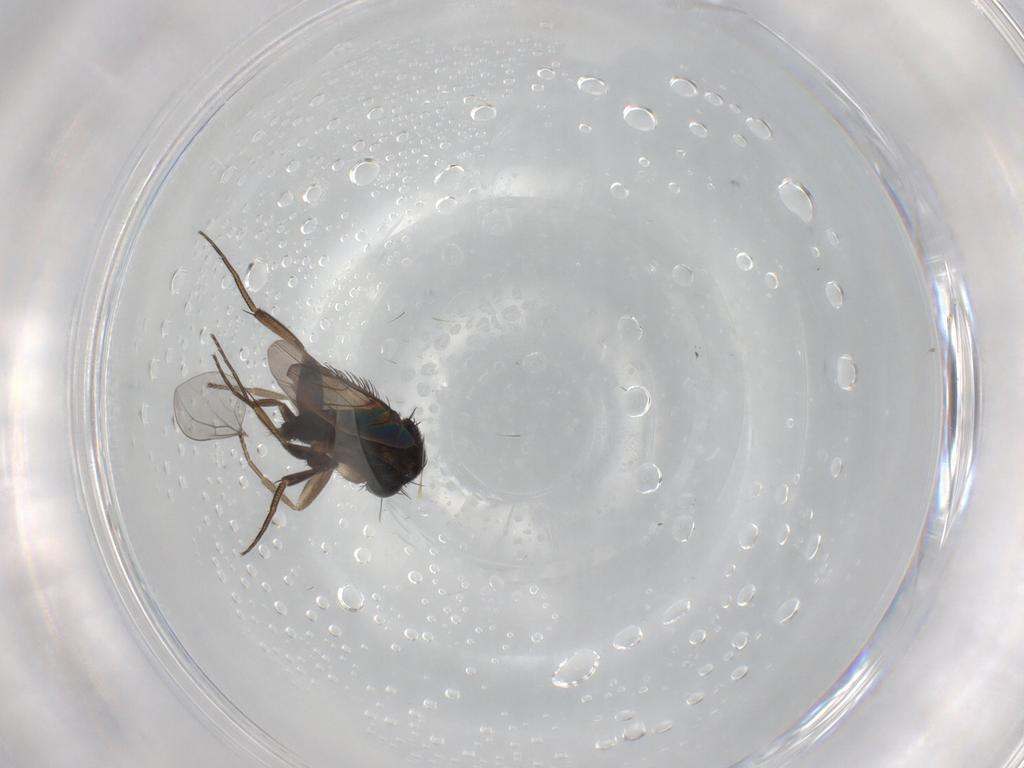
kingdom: Animalia
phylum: Arthropoda
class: Insecta
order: Diptera
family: Phoridae
